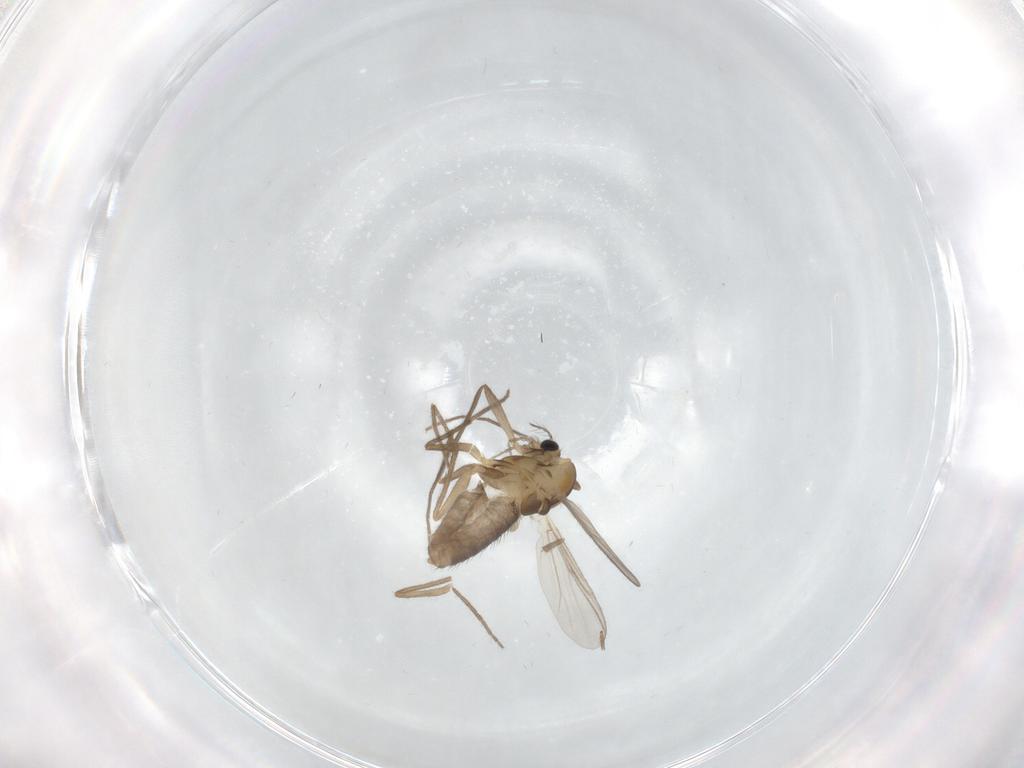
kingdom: Animalia
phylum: Arthropoda
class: Insecta
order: Diptera
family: Chironomidae
